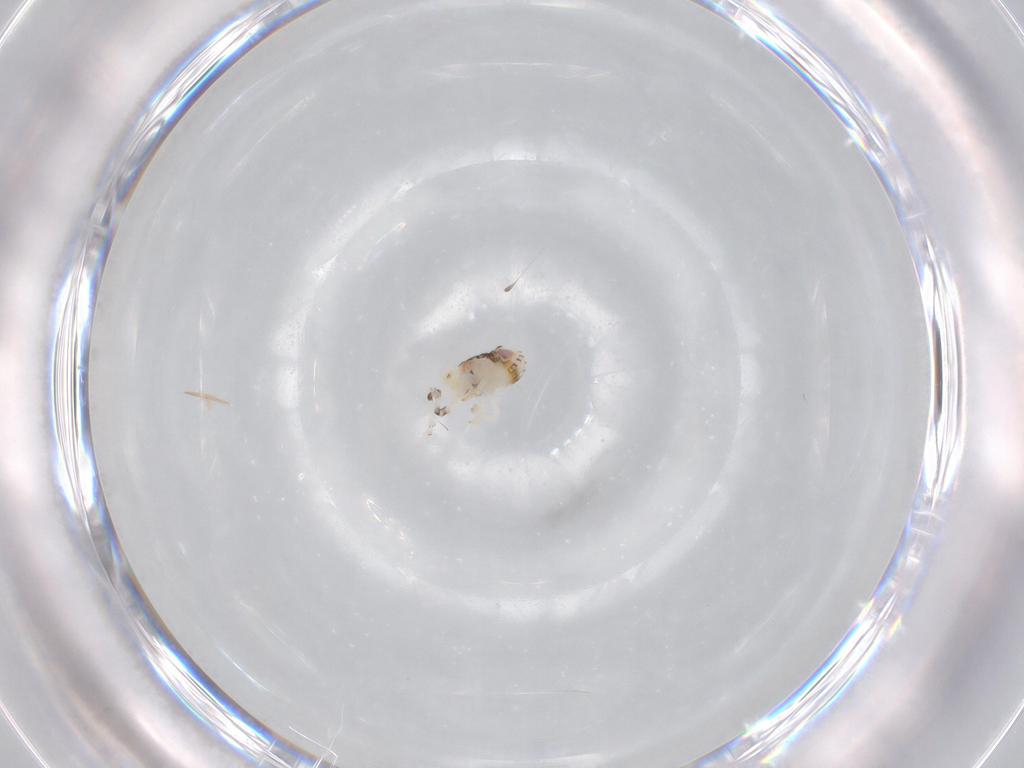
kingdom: Animalia
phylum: Arthropoda
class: Insecta
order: Hemiptera
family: Nogodinidae
